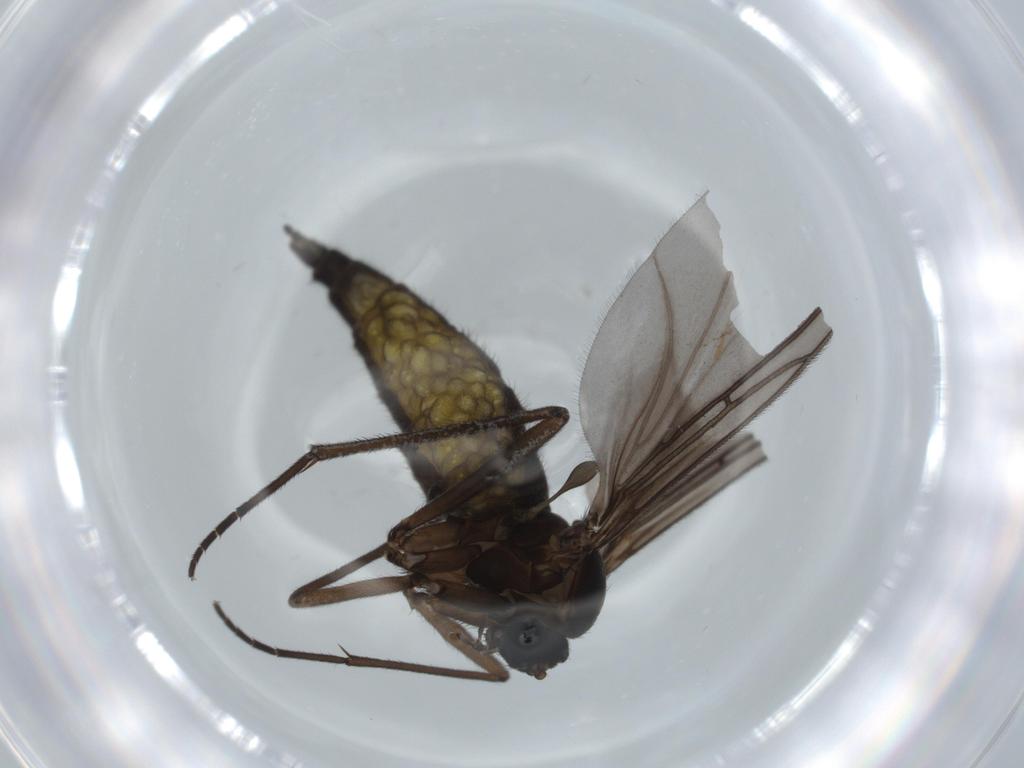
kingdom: Animalia
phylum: Arthropoda
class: Insecta
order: Diptera
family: Sciaridae
